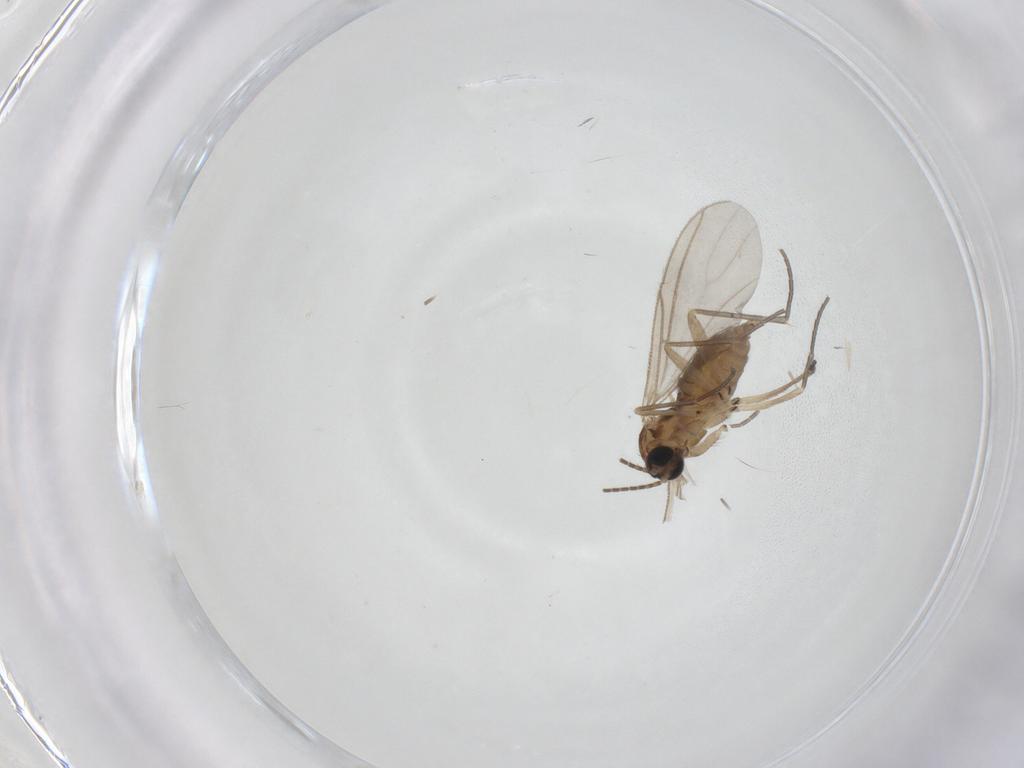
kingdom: Animalia
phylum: Arthropoda
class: Insecta
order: Diptera
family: Sciaridae
